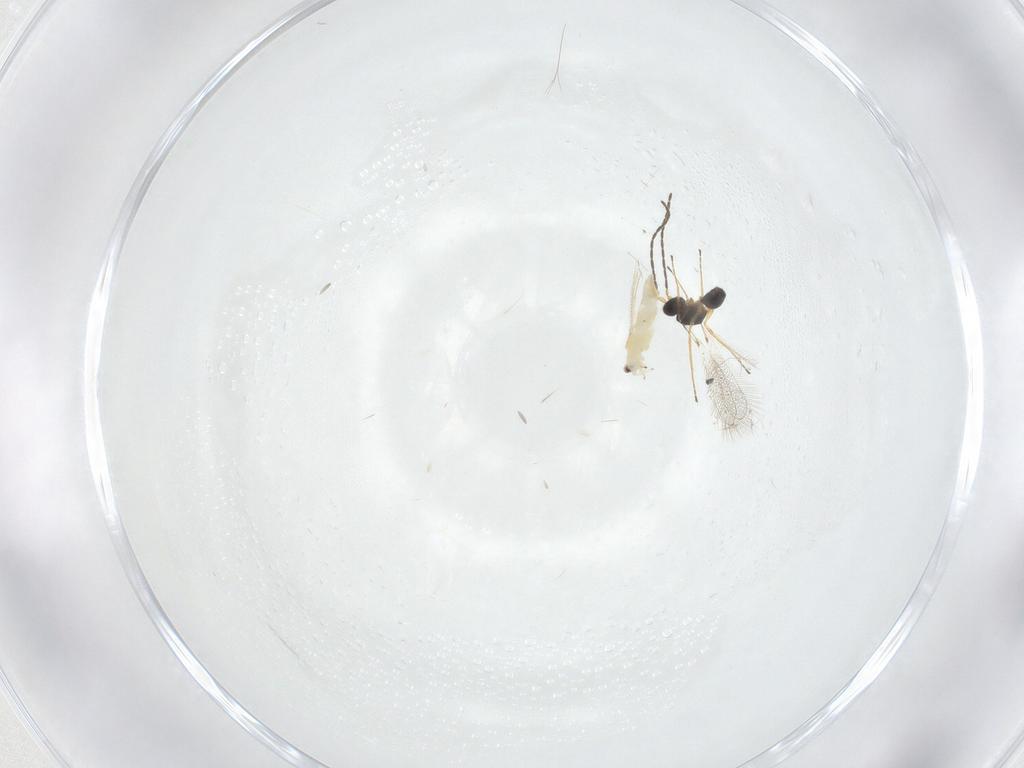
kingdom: Animalia
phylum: Arthropoda
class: Insecta
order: Hymenoptera
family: Mymaridae
